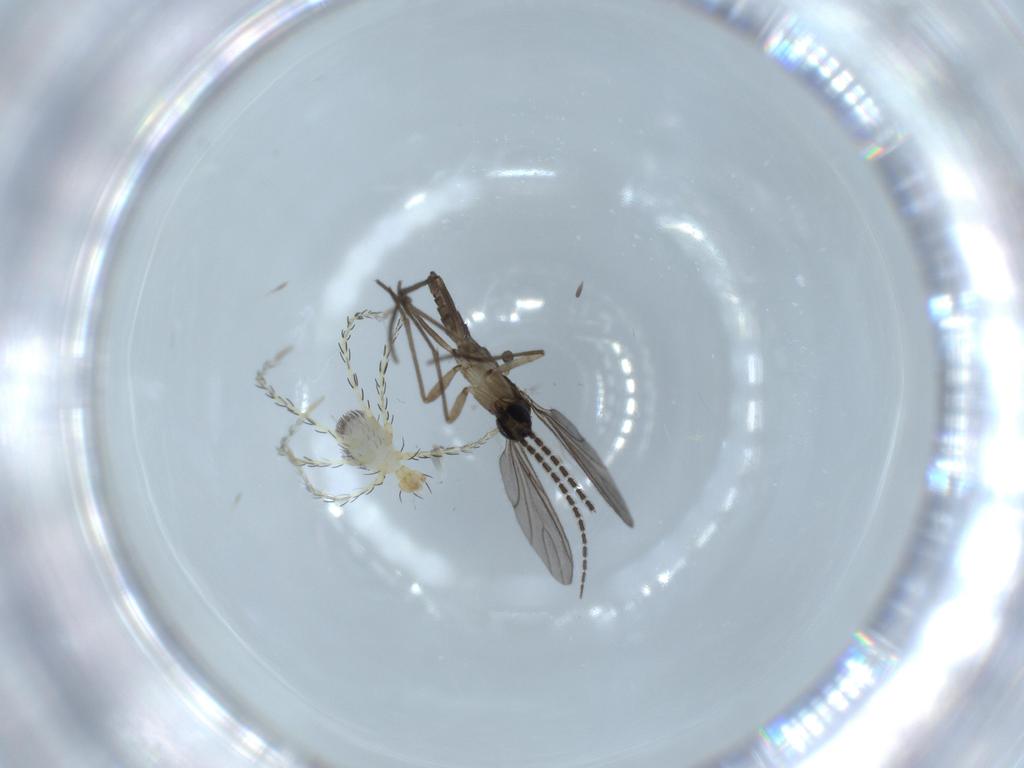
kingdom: Animalia
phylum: Arthropoda
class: Insecta
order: Diptera
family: Sciaridae
